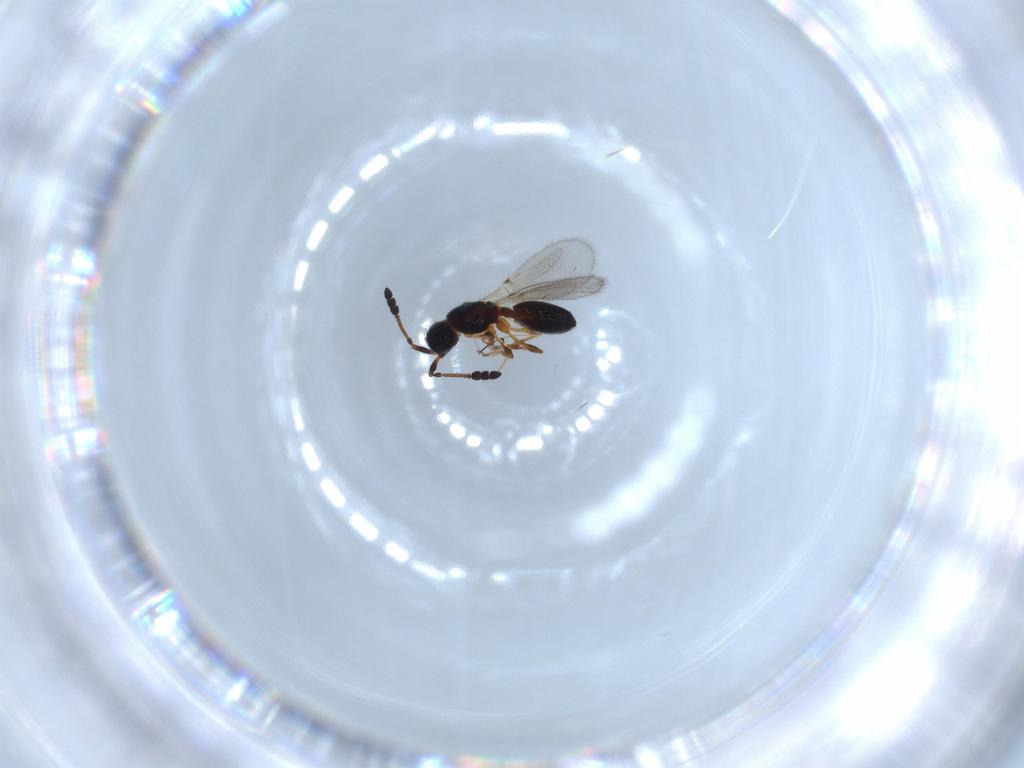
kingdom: Animalia
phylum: Arthropoda
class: Insecta
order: Hymenoptera
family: Diapriidae
